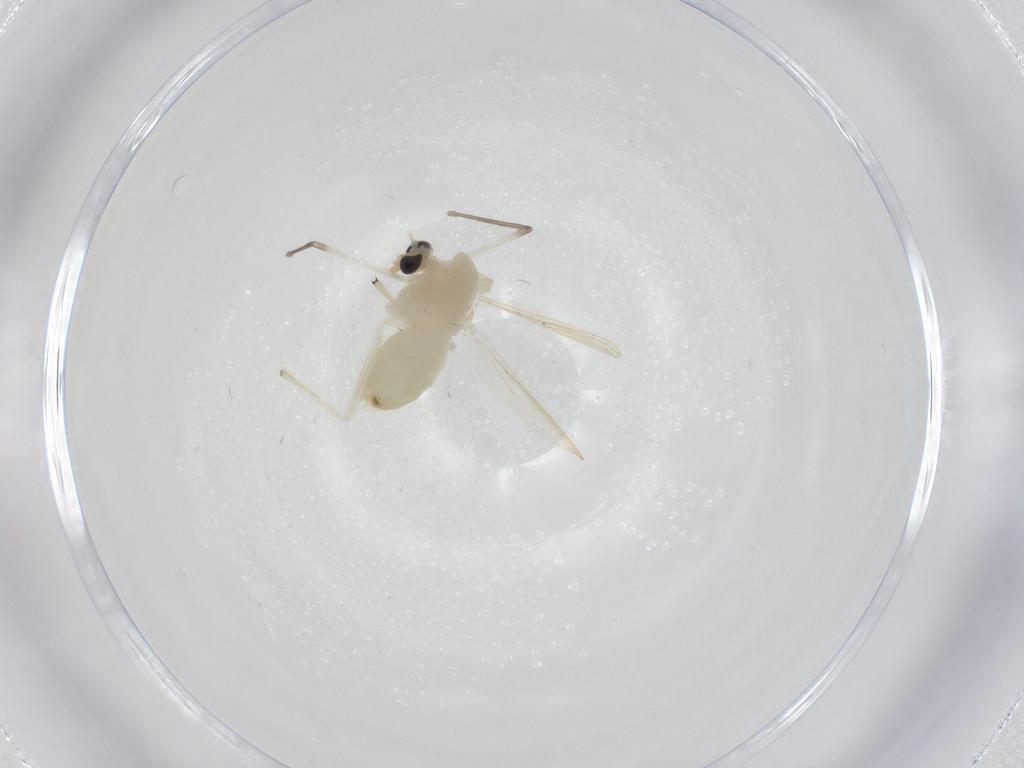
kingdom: Animalia
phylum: Arthropoda
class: Insecta
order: Diptera
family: Chironomidae
